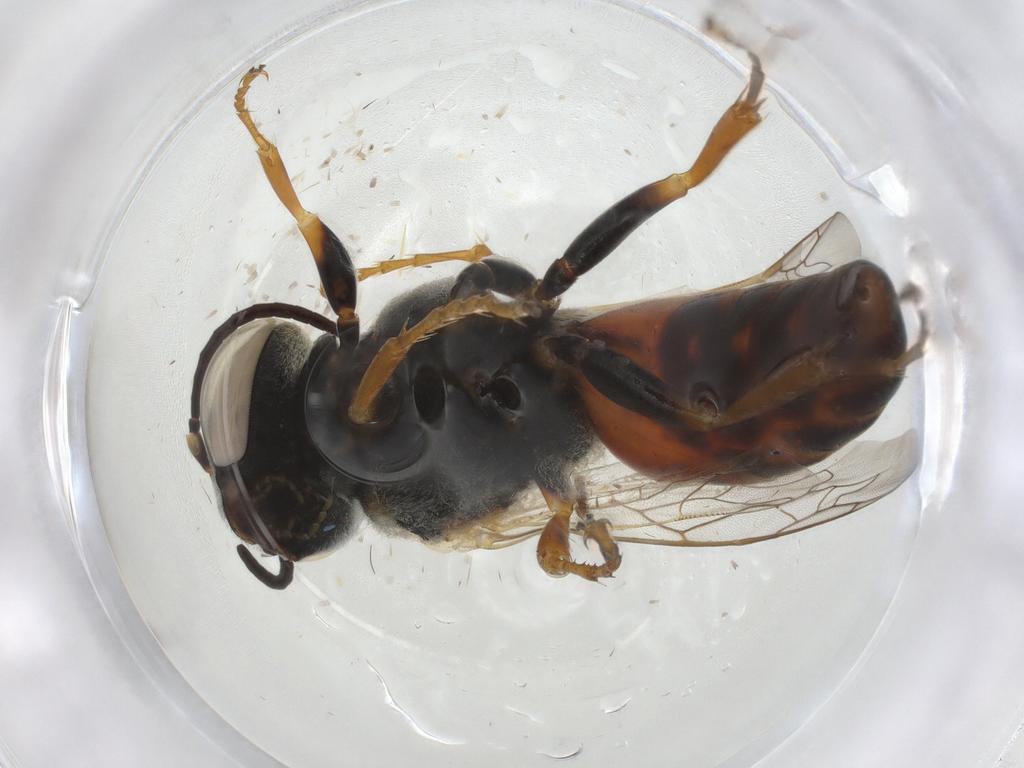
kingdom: Animalia
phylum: Arthropoda
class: Insecta
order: Hymenoptera
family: Crabronidae
